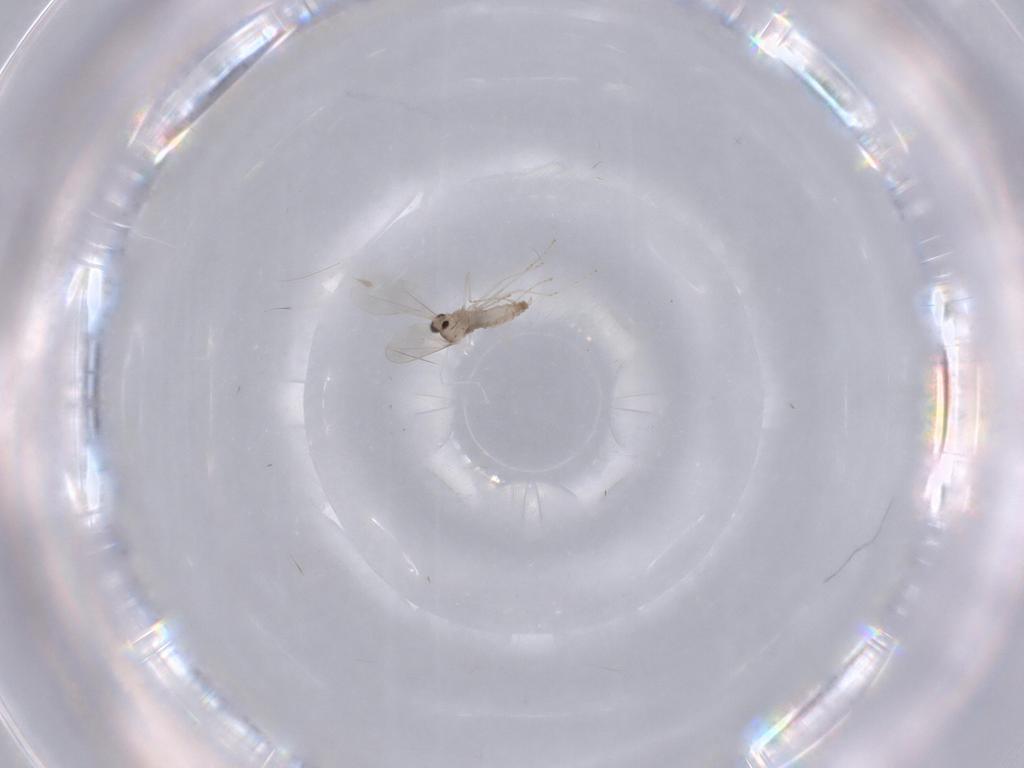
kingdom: Animalia
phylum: Arthropoda
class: Insecta
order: Diptera
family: Cecidomyiidae
